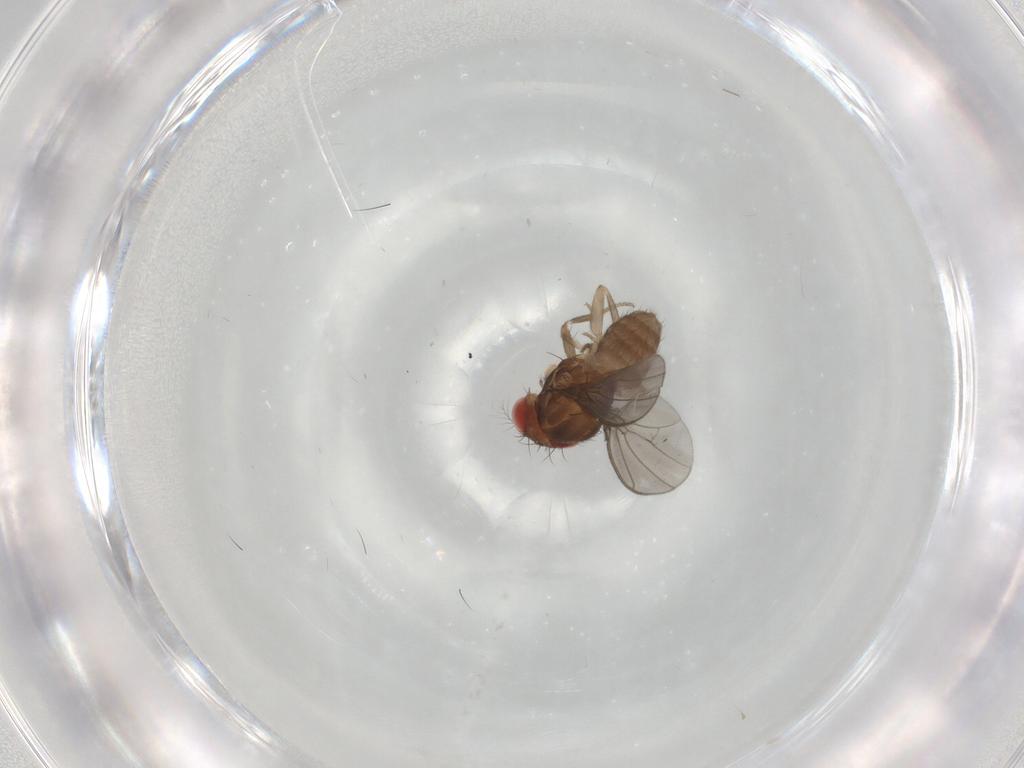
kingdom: Animalia
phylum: Arthropoda
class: Insecta
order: Diptera
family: Drosophilidae
